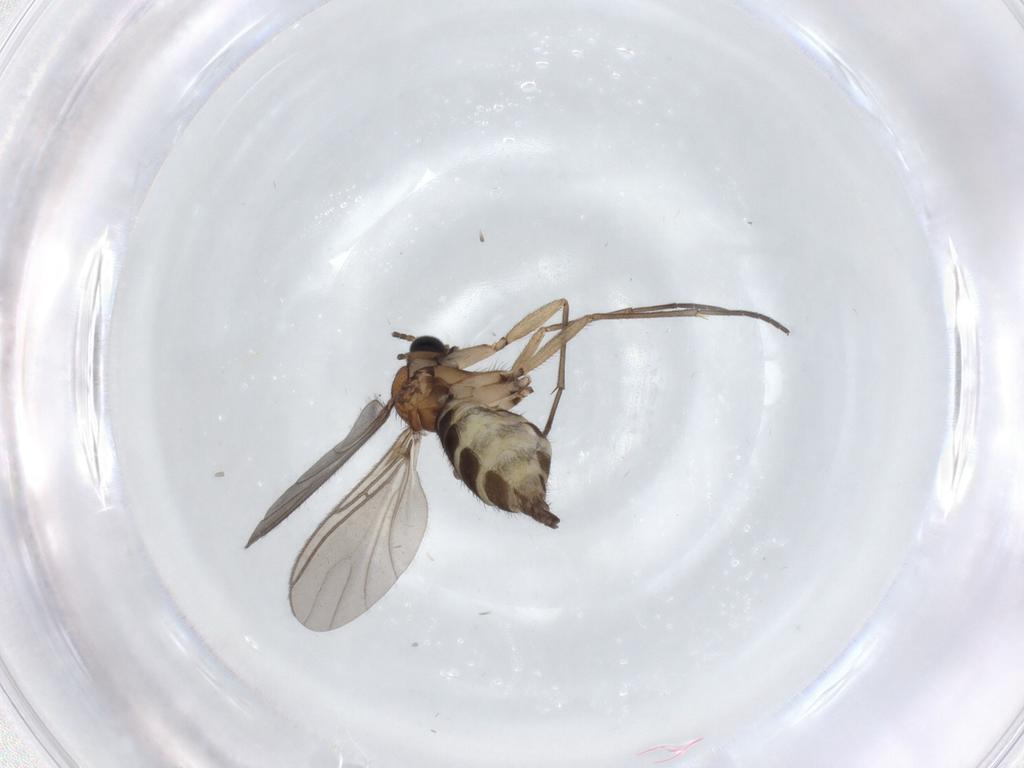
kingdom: Animalia
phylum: Arthropoda
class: Insecta
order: Diptera
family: Sciaridae
